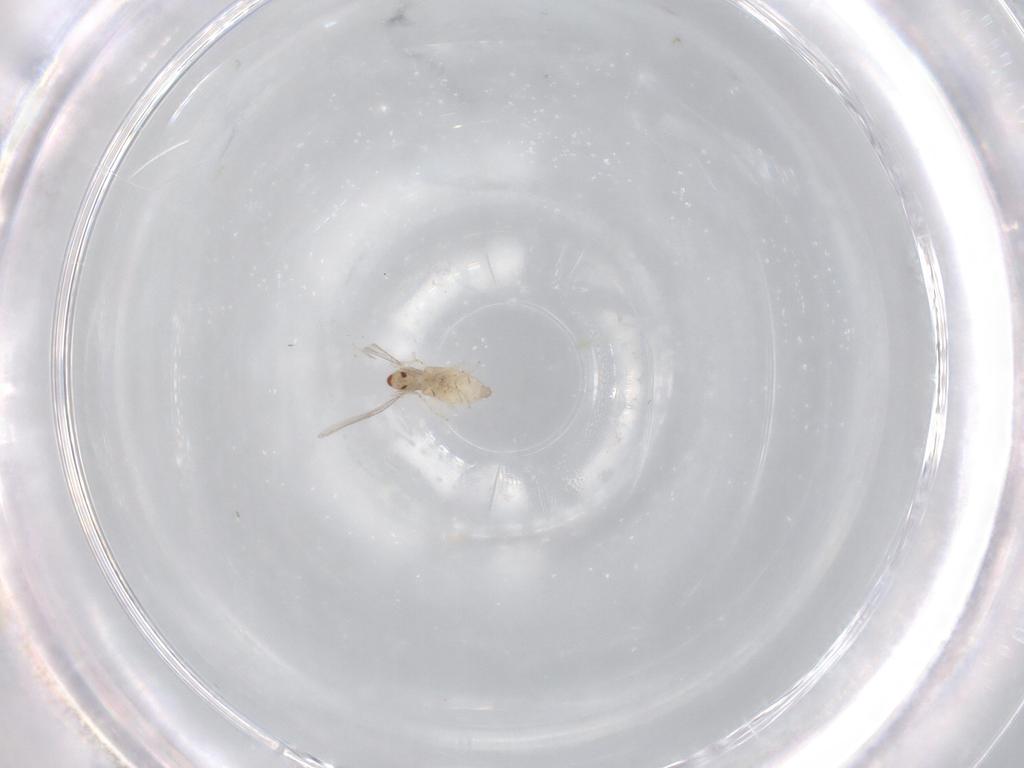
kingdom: Animalia
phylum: Arthropoda
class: Insecta
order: Diptera
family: Cecidomyiidae
